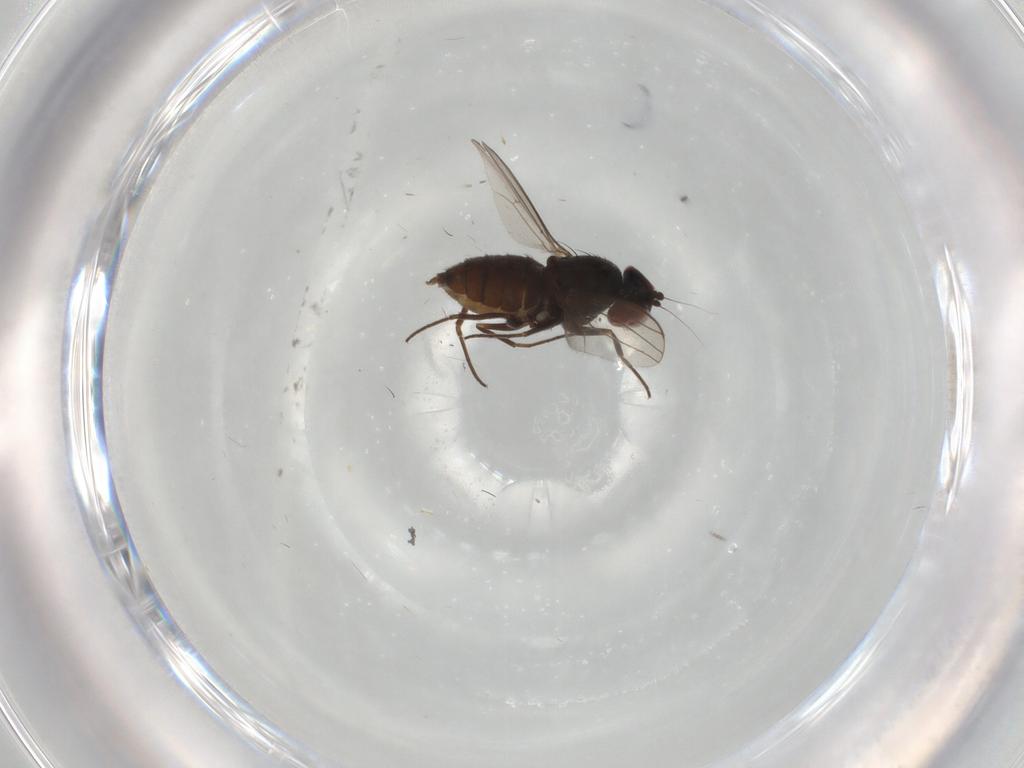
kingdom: Animalia
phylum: Arthropoda
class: Insecta
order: Diptera
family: Dolichopodidae
